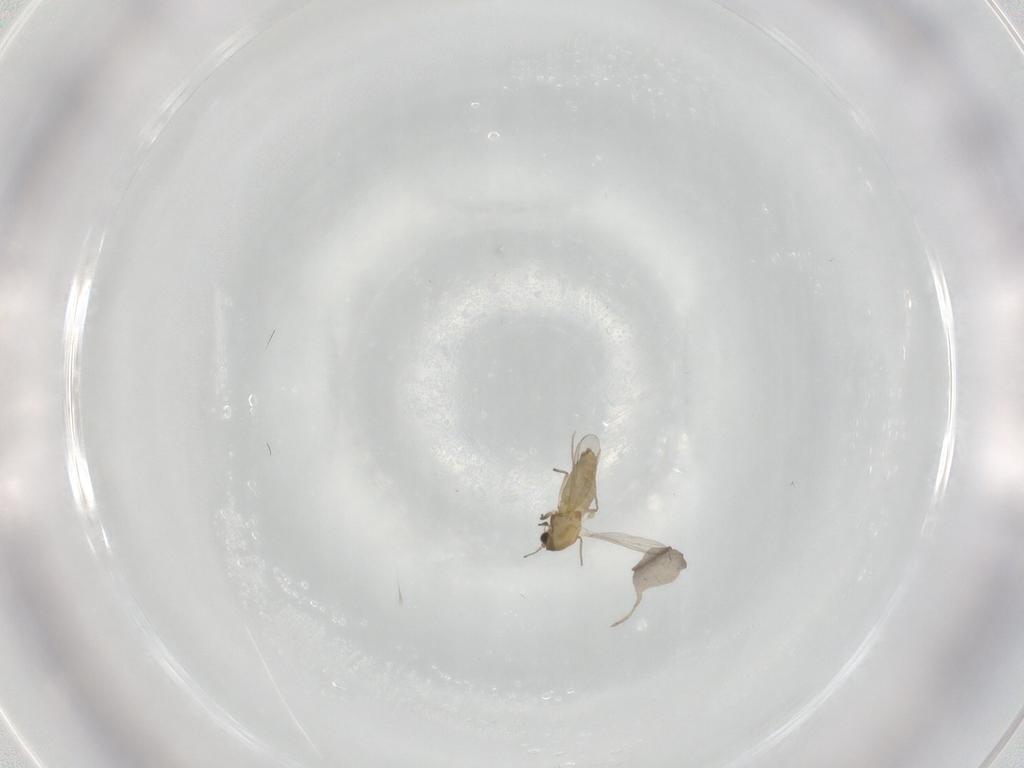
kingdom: Animalia
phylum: Arthropoda
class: Insecta
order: Diptera
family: Chironomidae
